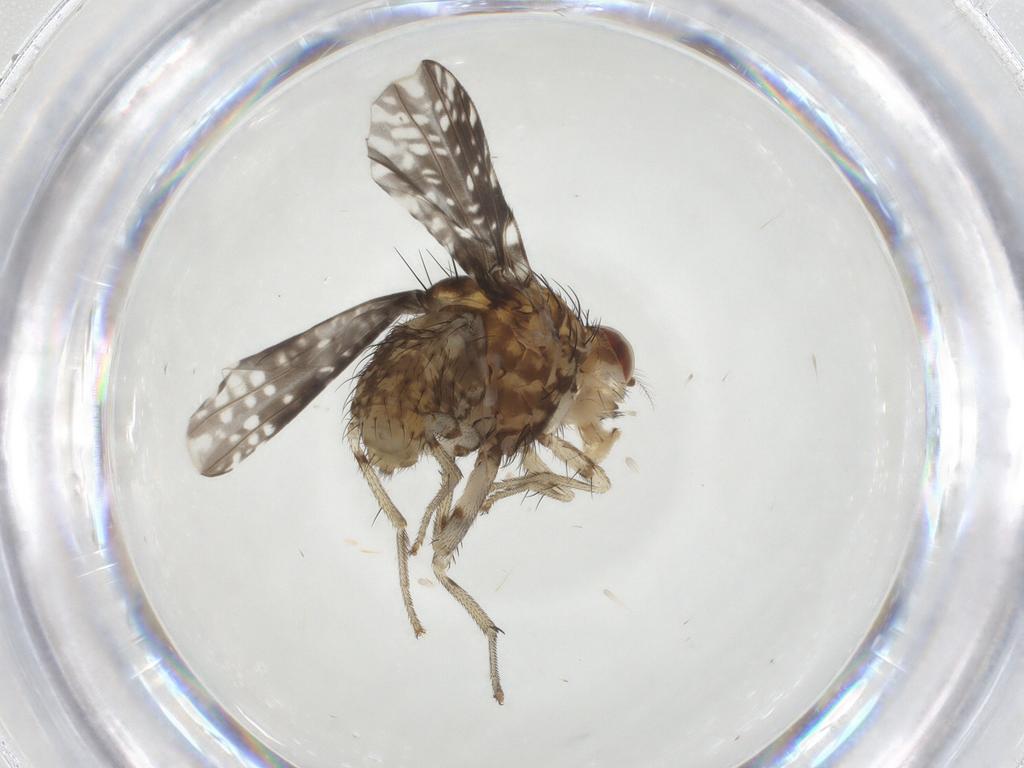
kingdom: Animalia
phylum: Arthropoda
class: Insecta
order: Diptera
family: Lauxaniidae
